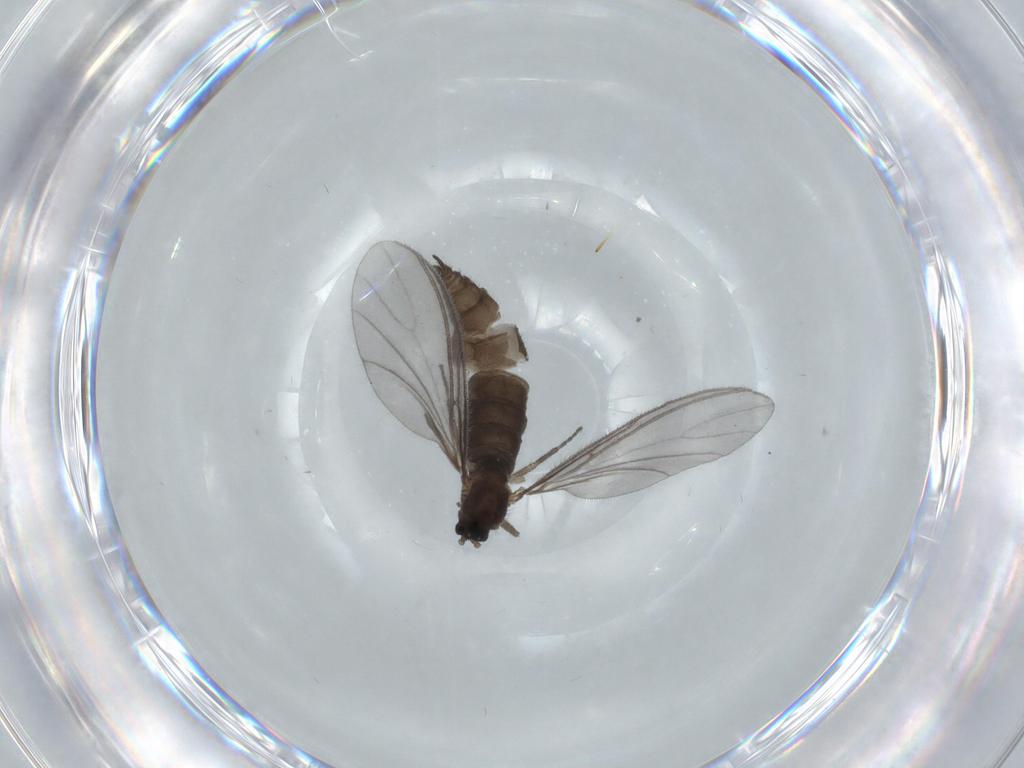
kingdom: Animalia
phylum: Arthropoda
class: Insecta
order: Diptera
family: Sciaridae
